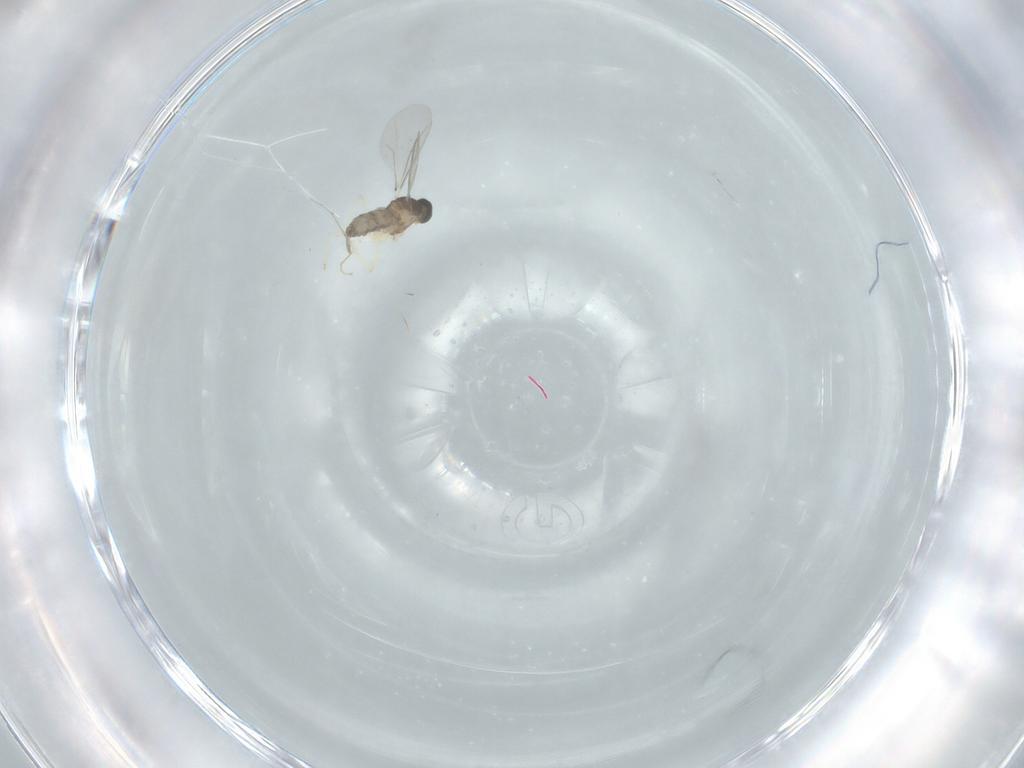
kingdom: Animalia
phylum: Arthropoda
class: Insecta
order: Diptera
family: Cecidomyiidae
